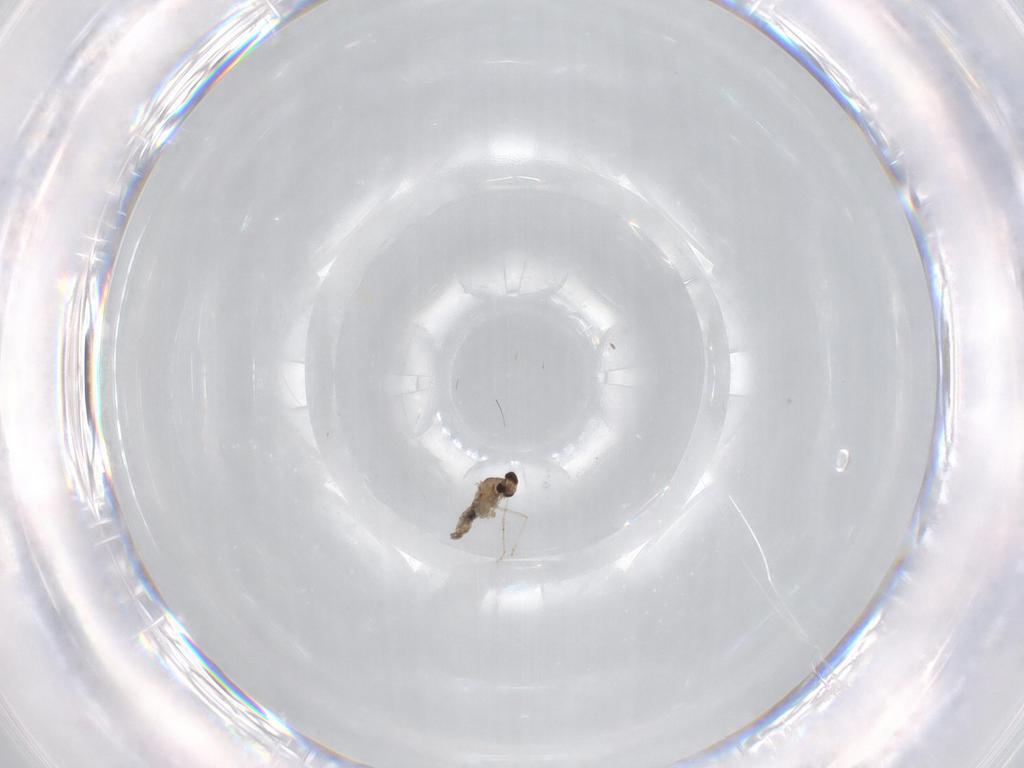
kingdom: Animalia
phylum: Arthropoda
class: Insecta
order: Diptera
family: Cecidomyiidae
